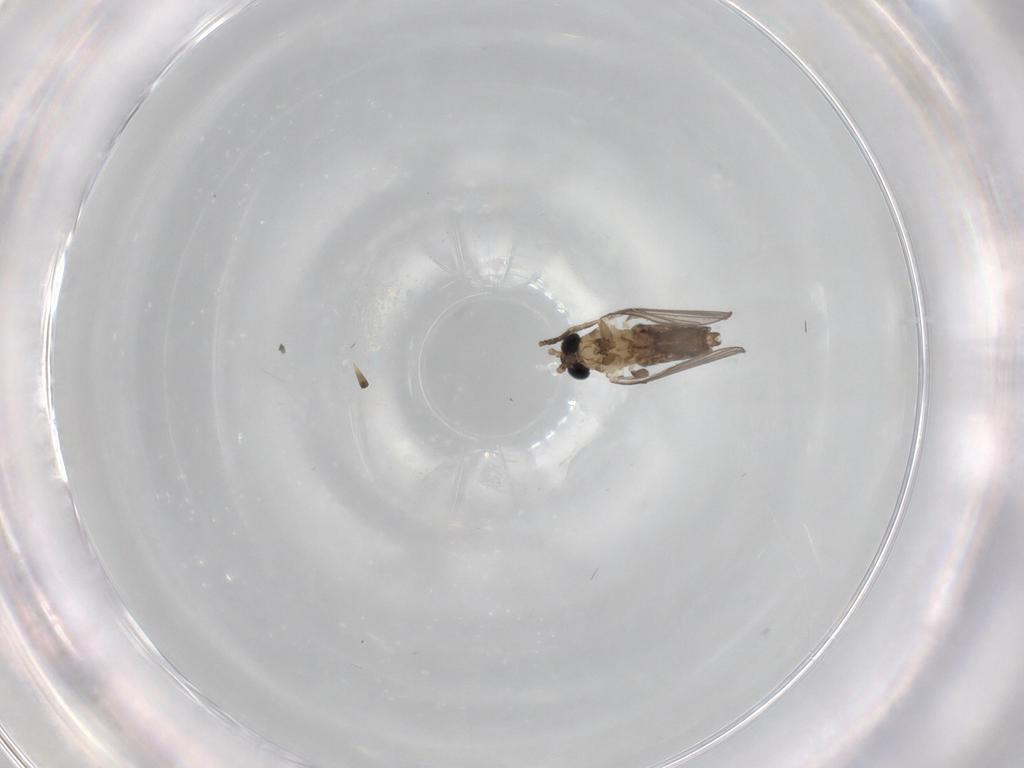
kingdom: Animalia
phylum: Arthropoda
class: Insecta
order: Diptera
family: Psychodidae
